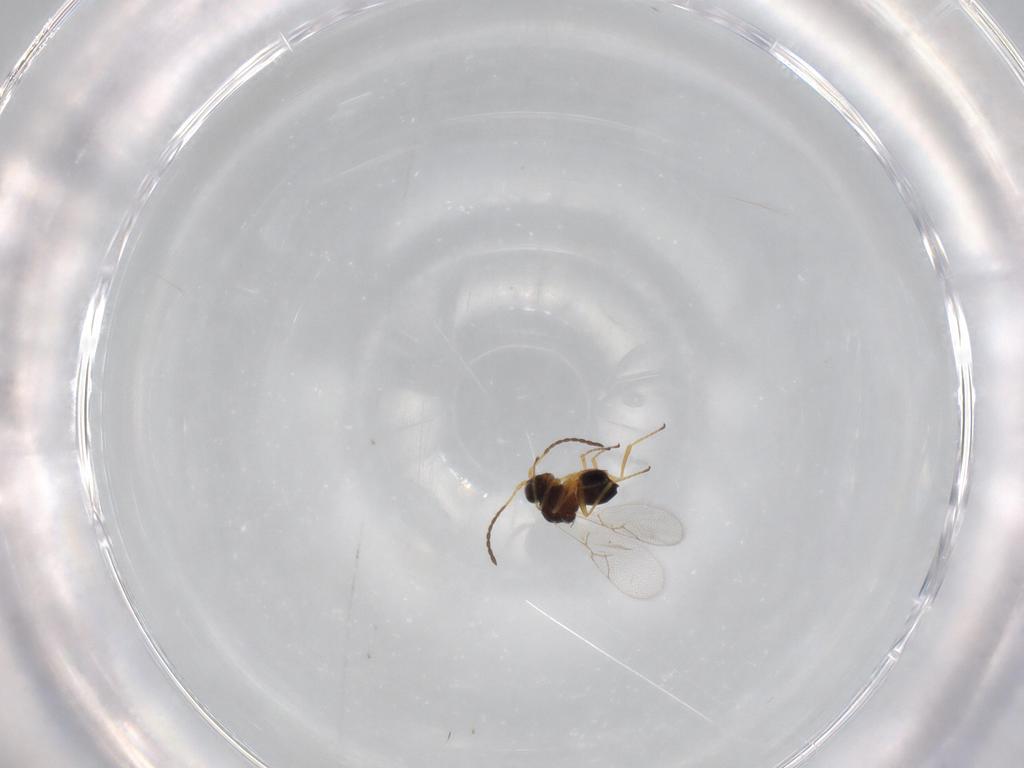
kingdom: Animalia
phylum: Arthropoda
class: Insecta
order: Hymenoptera
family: Figitidae
